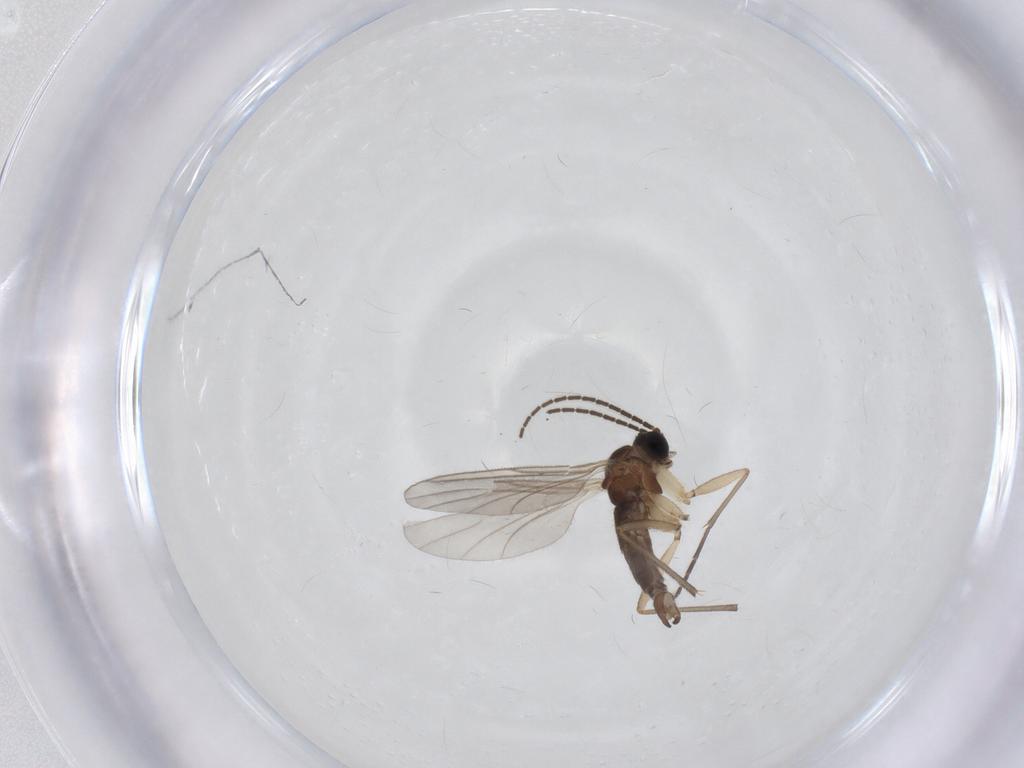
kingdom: Animalia
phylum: Arthropoda
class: Insecta
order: Diptera
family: Sciaridae
